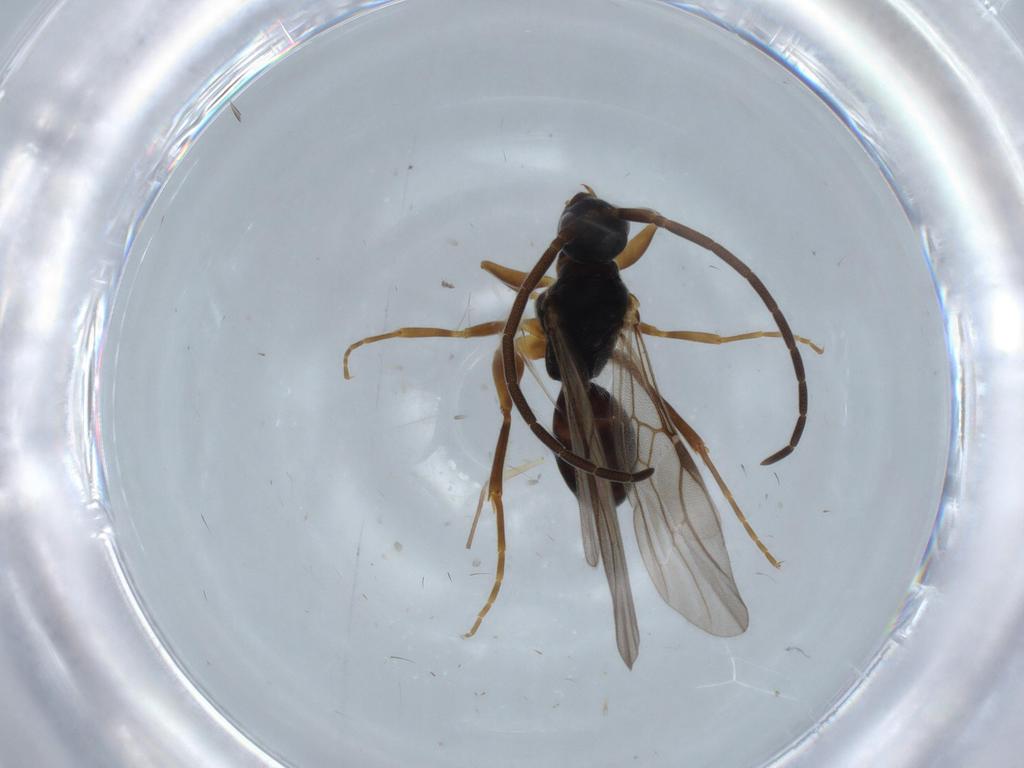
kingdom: Animalia
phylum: Arthropoda
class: Insecta
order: Hymenoptera
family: Embolemidae
